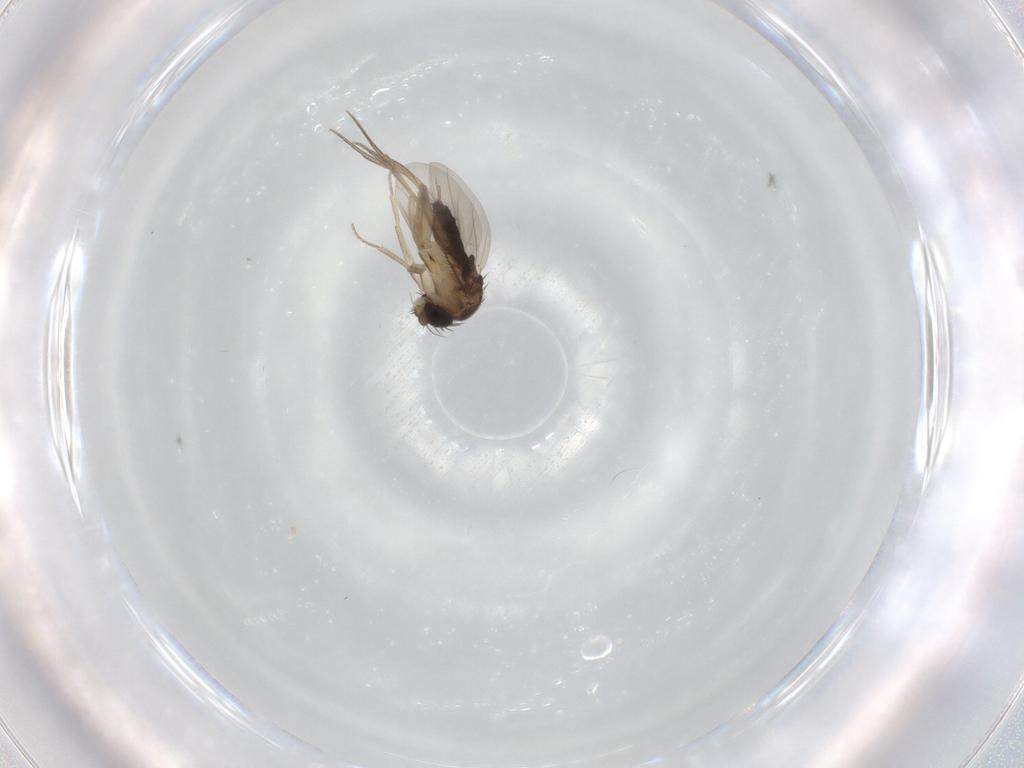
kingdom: Animalia
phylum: Arthropoda
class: Insecta
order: Diptera
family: Phoridae
